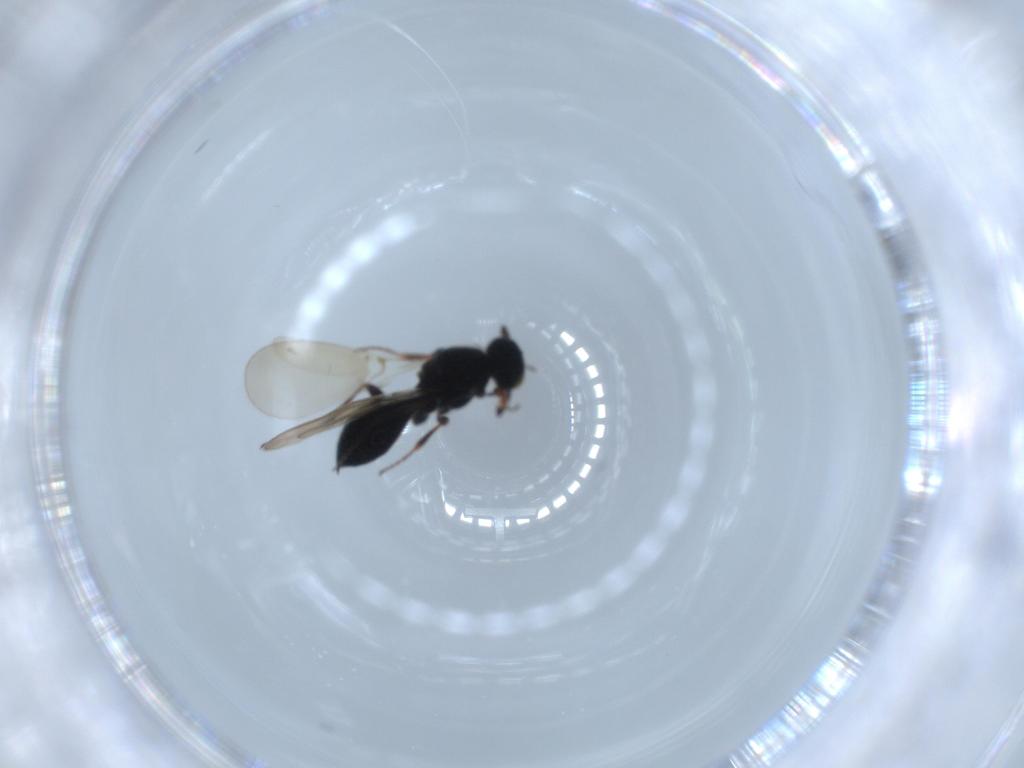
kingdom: Animalia
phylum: Arthropoda
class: Insecta
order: Hymenoptera
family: Platygastridae
